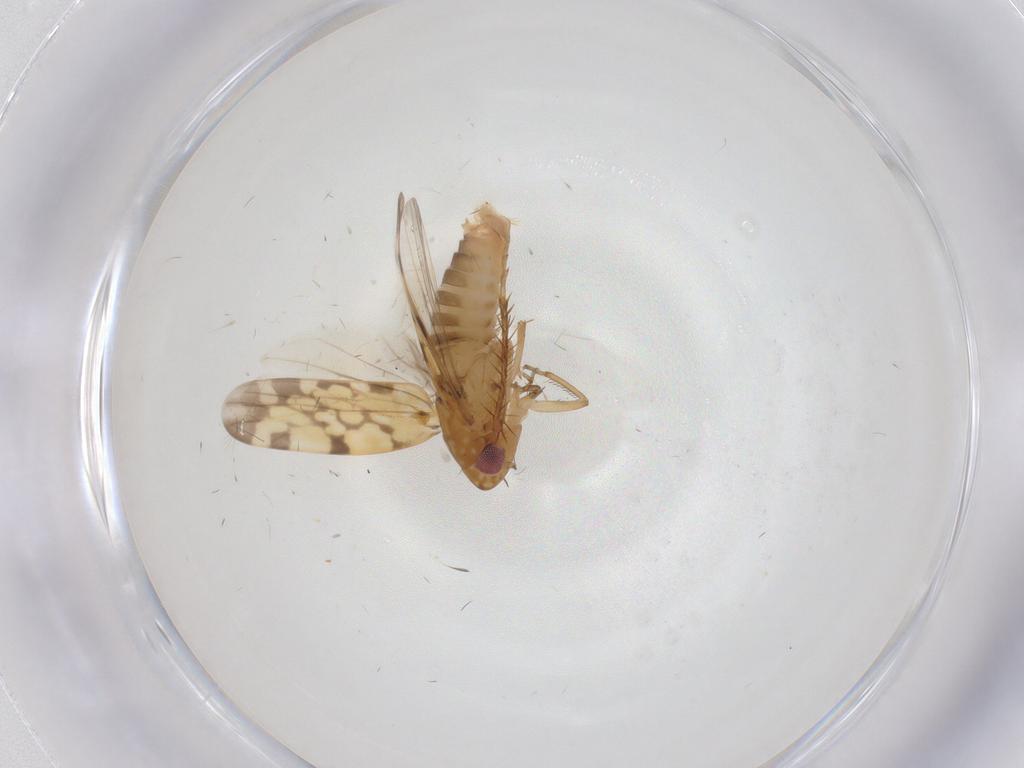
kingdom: Animalia
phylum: Arthropoda
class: Insecta
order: Hemiptera
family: Cicadellidae
